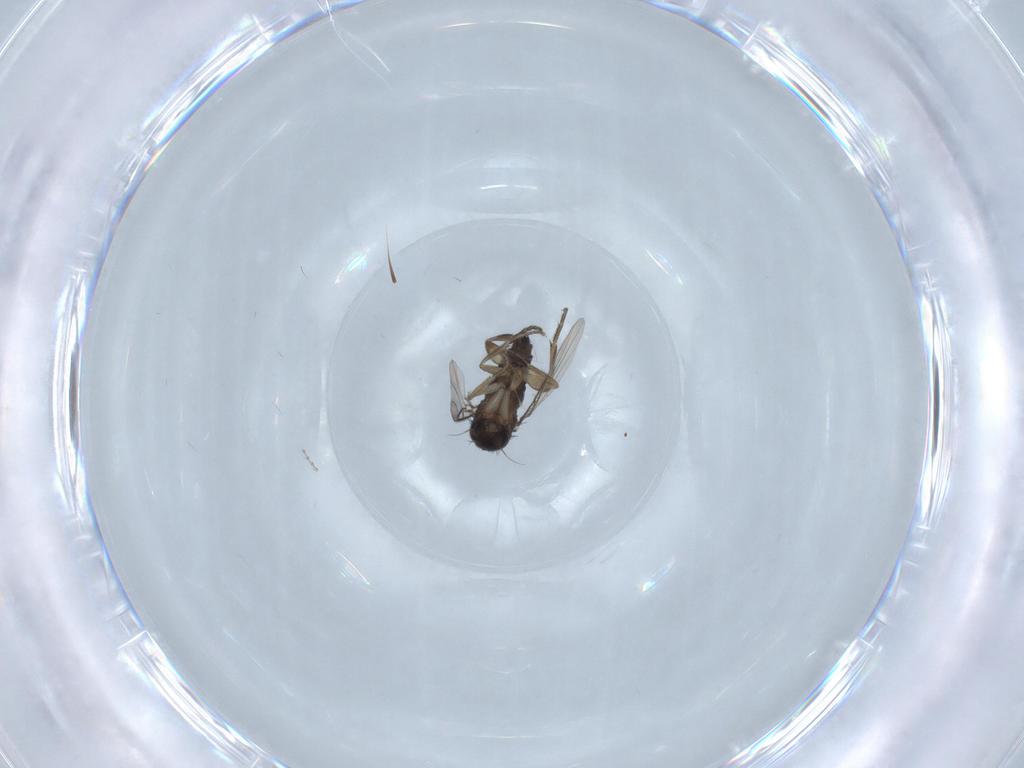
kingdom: Animalia
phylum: Arthropoda
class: Insecta
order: Diptera
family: Phoridae
